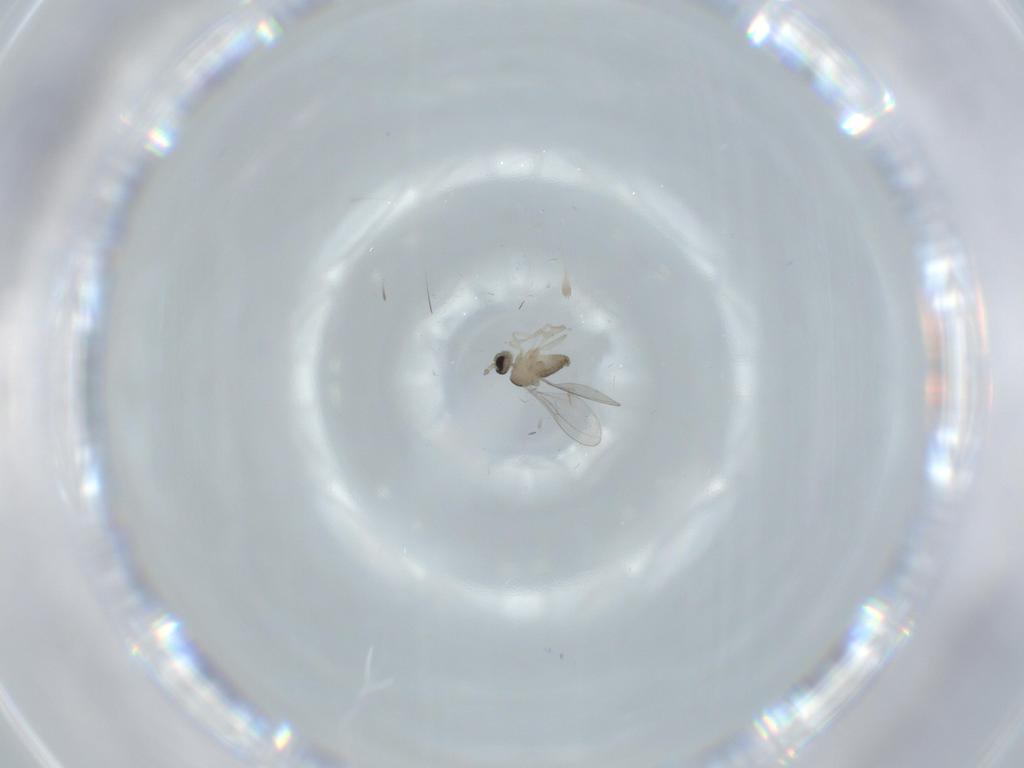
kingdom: Animalia
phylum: Arthropoda
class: Insecta
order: Diptera
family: Cecidomyiidae
